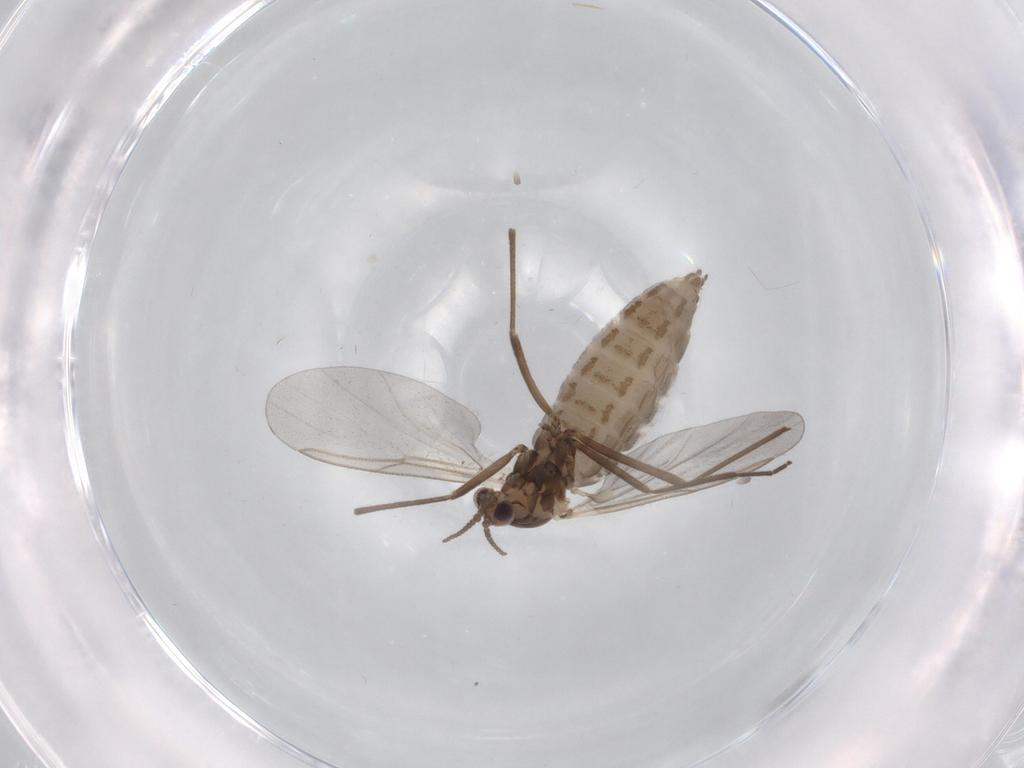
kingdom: Animalia
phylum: Arthropoda
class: Insecta
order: Diptera
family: Cecidomyiidae
